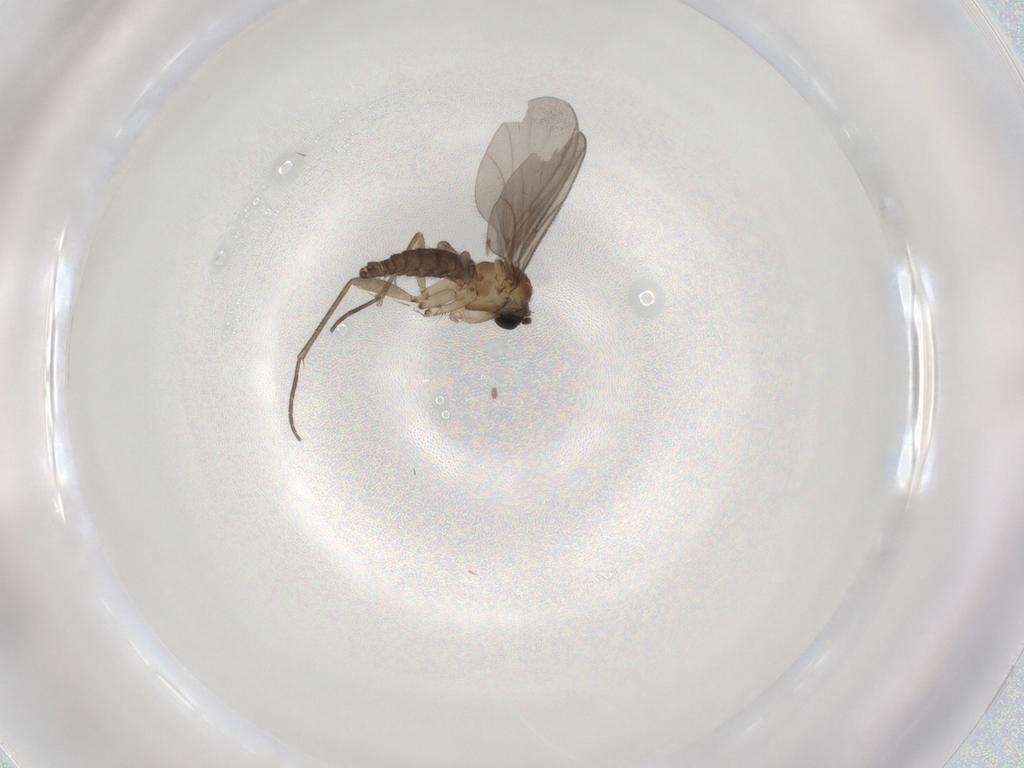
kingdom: Animalia
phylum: Arthropoda
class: Insecta
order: Diptera
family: Sciaridae
